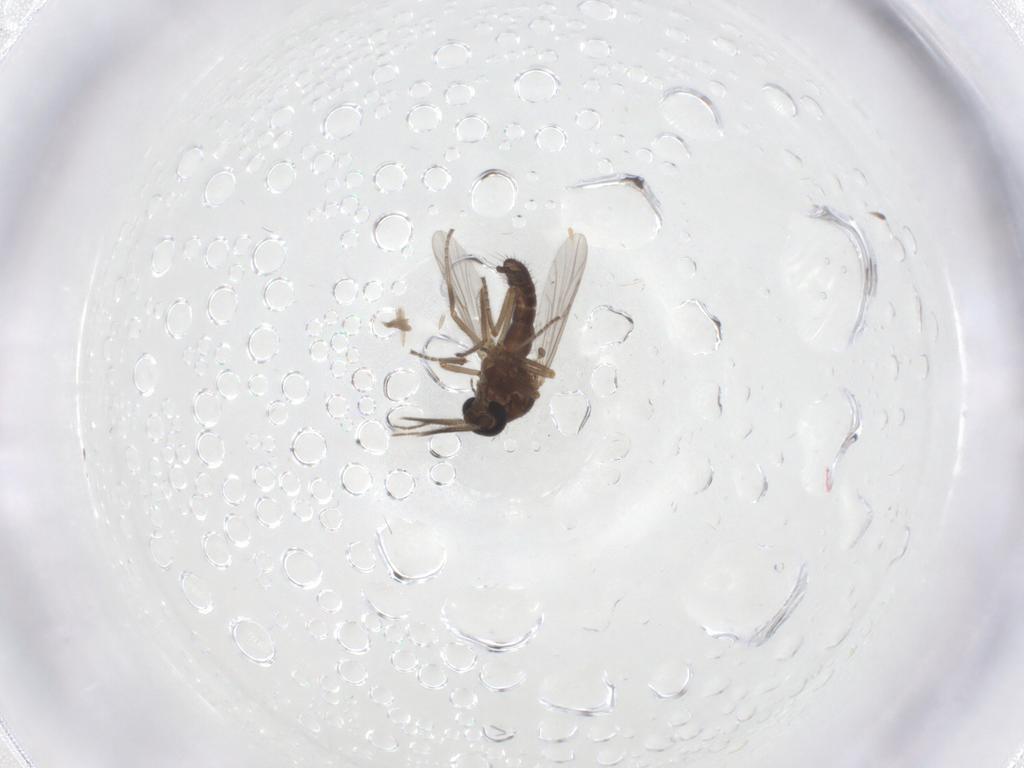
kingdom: Animalia
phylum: Arthropoda
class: Insecta
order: Diptera
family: Ceratopogonidae
